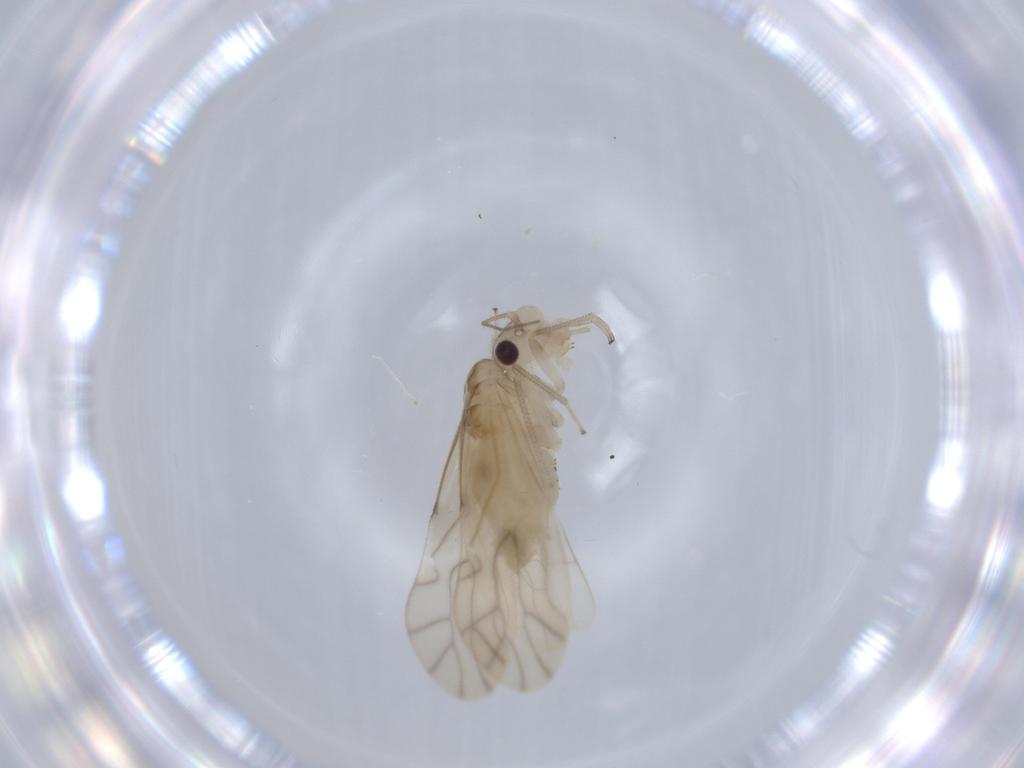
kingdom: Animalia
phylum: Arthropoda
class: Insecta
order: Psocodea
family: Caeciliusidae
